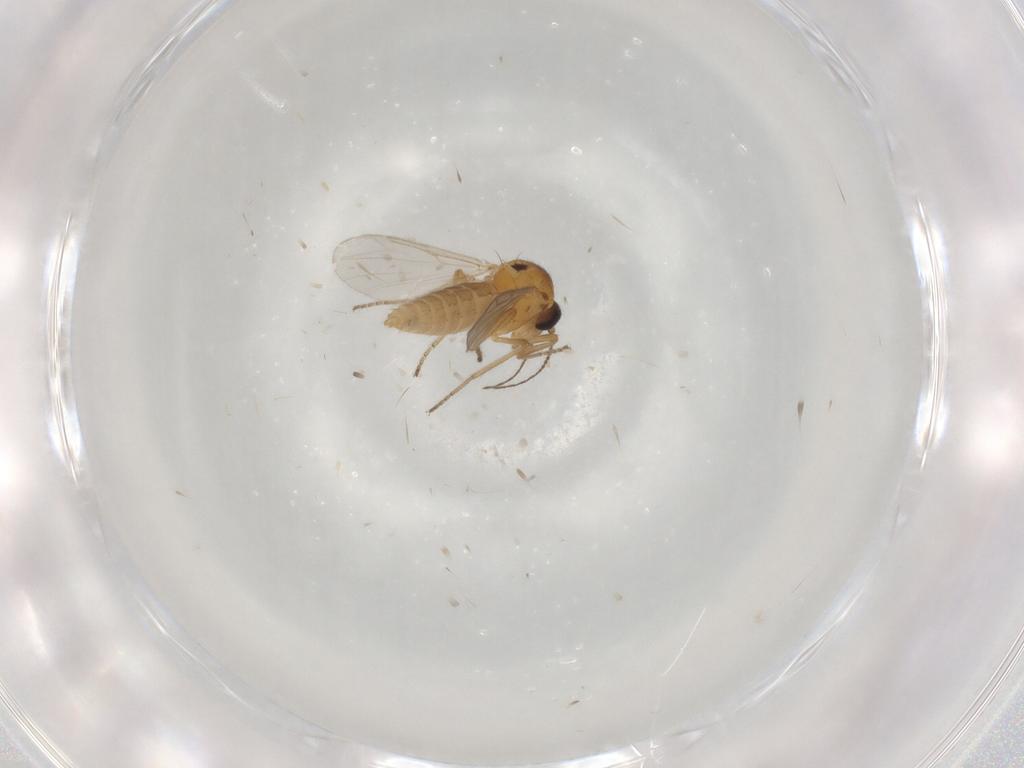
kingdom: Animalia
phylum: Arthropoda
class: Insecta
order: Diptera
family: Ceratopogonidae
